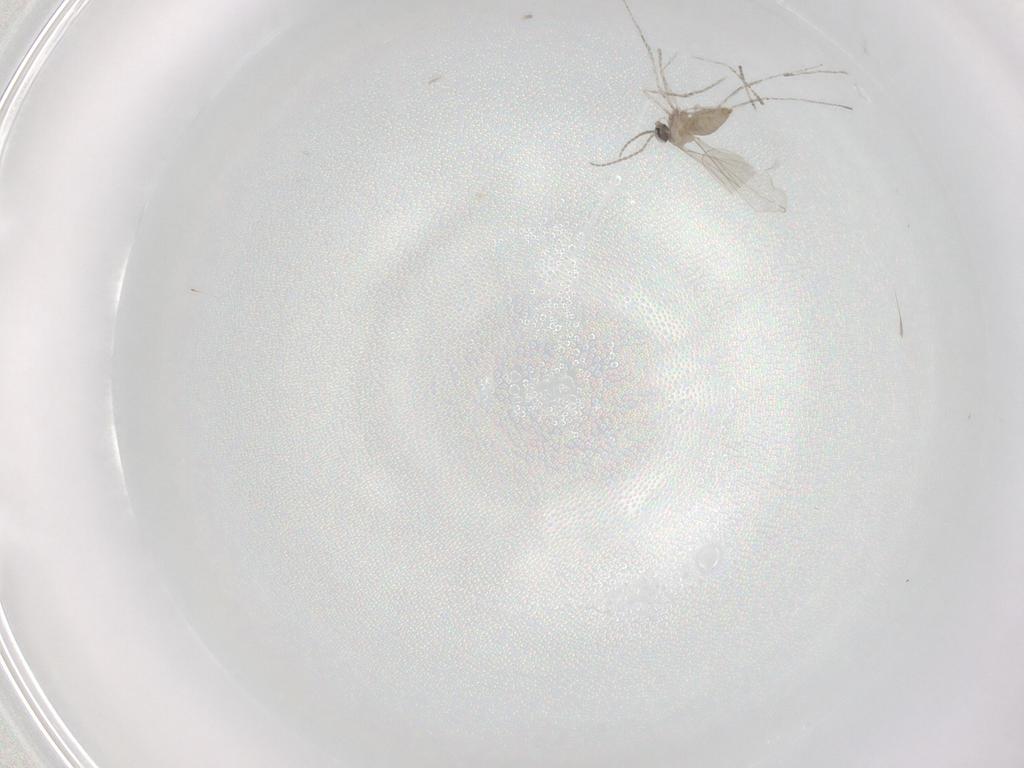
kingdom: Animalia
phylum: Arthropoda
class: Insecta
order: Diptera
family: Cecidomyiidae
